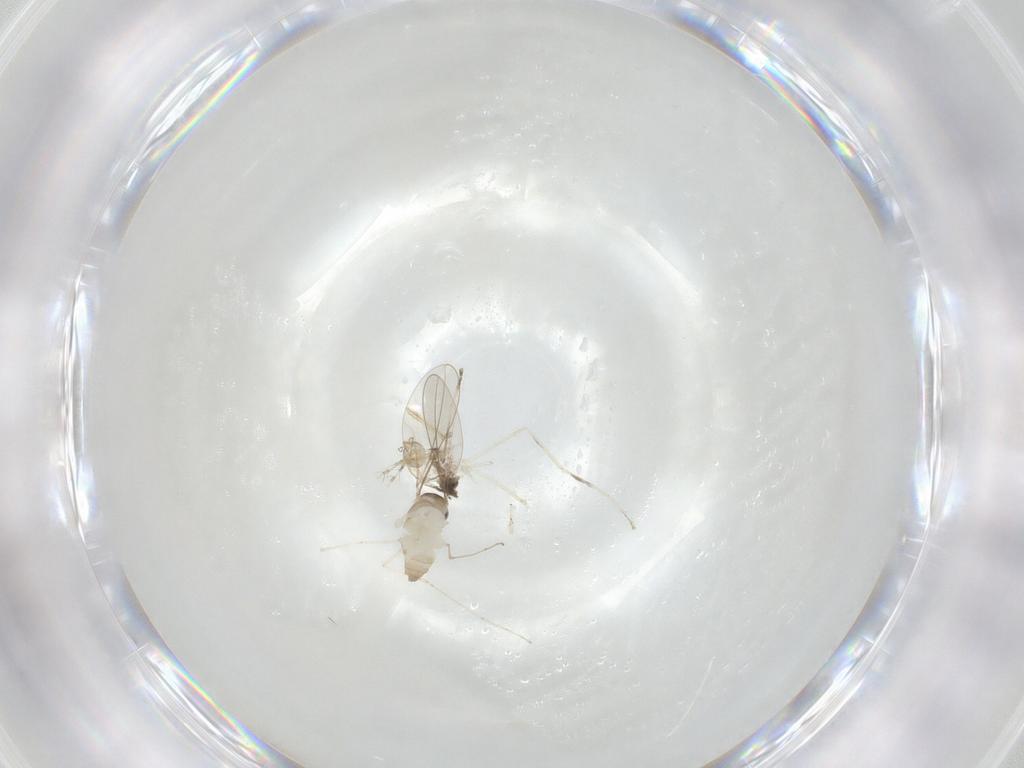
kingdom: Animalia
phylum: Arthropoda
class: Insecta
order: Diptera
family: Cecidomyiidae
